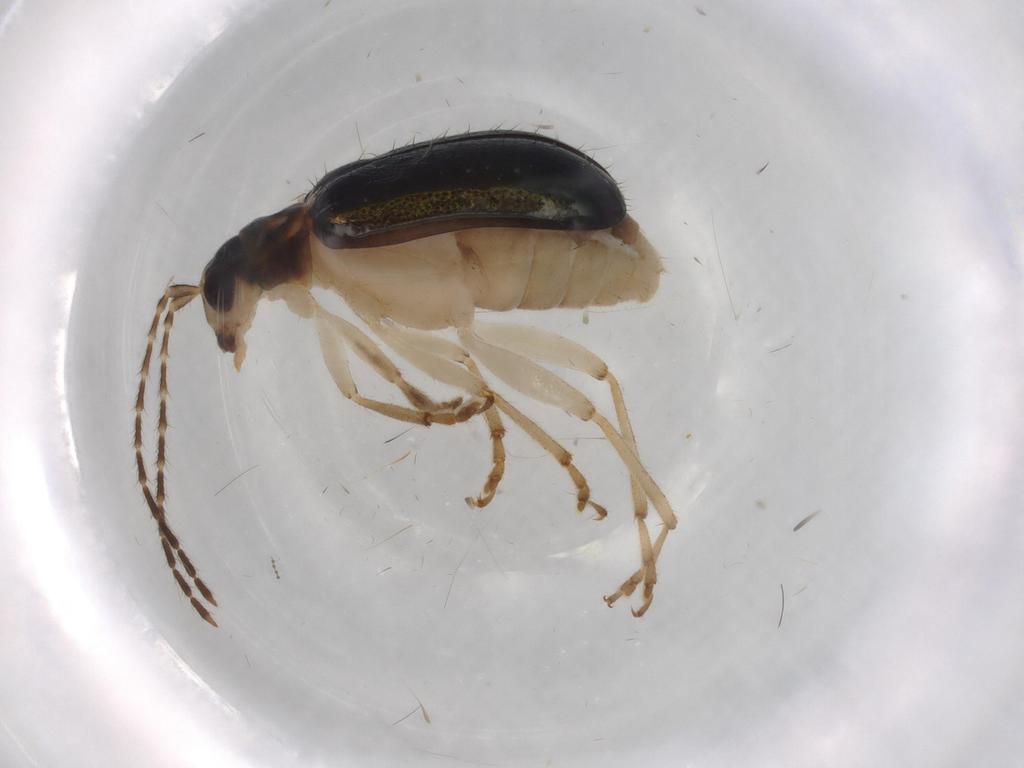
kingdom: Animalia
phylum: Arthropoda
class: Insecta
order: Coleoptera
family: Chrysomelidae
